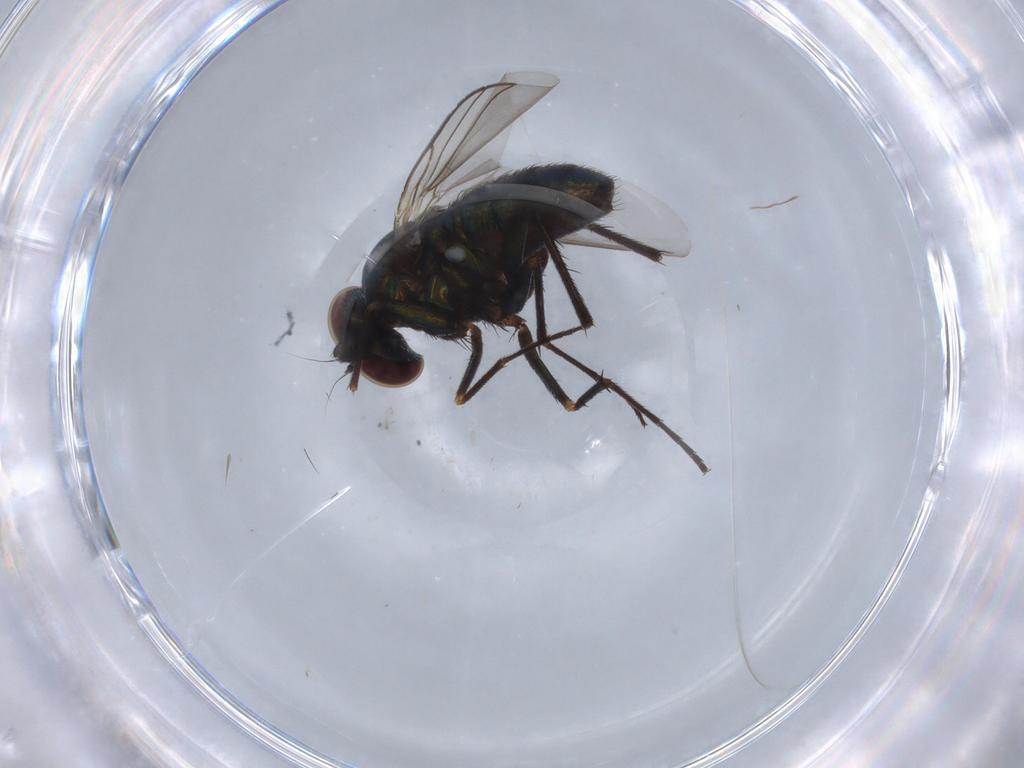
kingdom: Animalia
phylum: Arthropoda
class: Insecta
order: Diptera
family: Dolichopodidae
